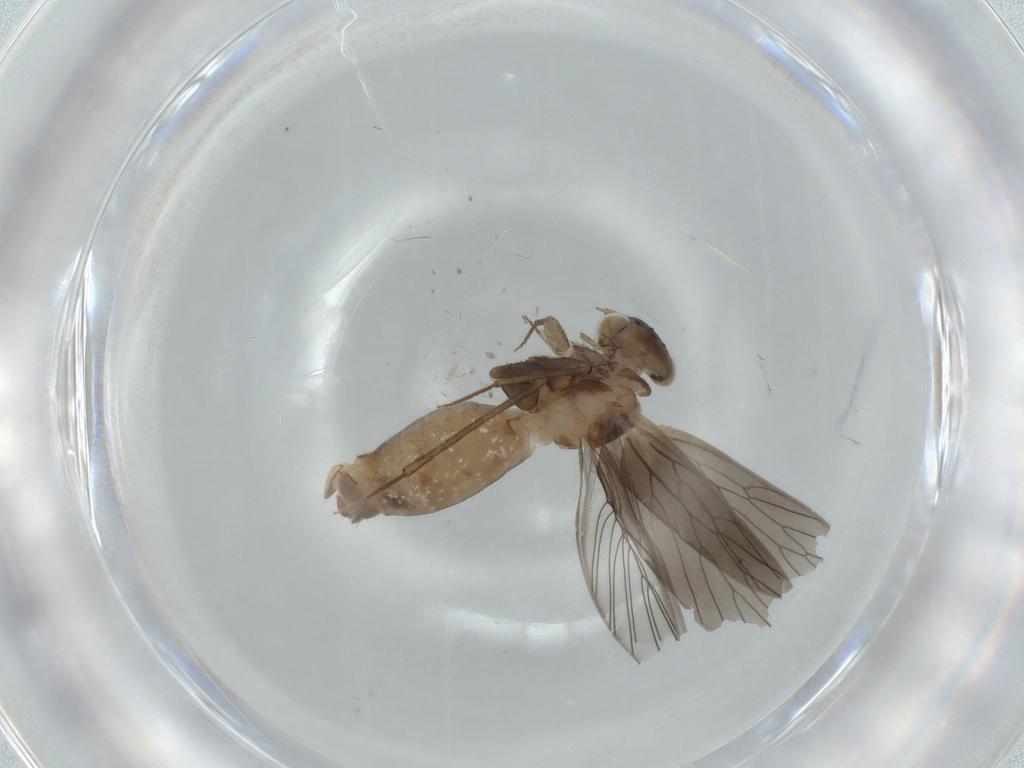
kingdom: Animalia
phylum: Arthropoda
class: Insecta
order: Psocodea
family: Lepidopsocidae
